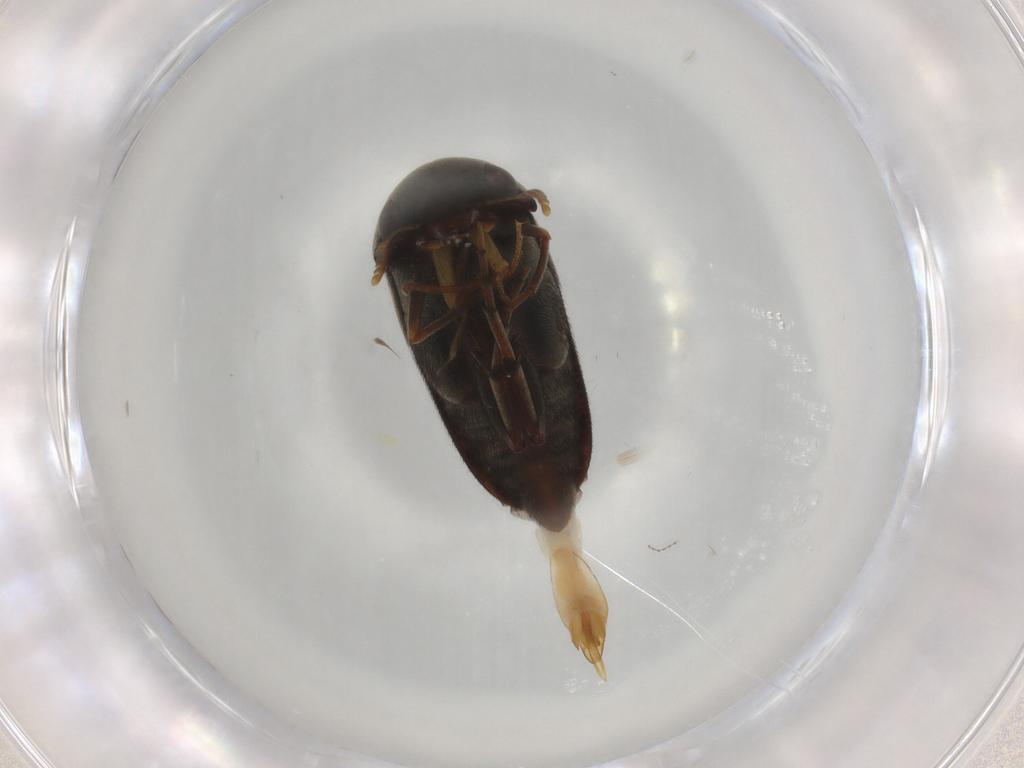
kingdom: Animalia
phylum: Arthropoda
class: Insecta
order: Coleoptera
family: Mordellidae
